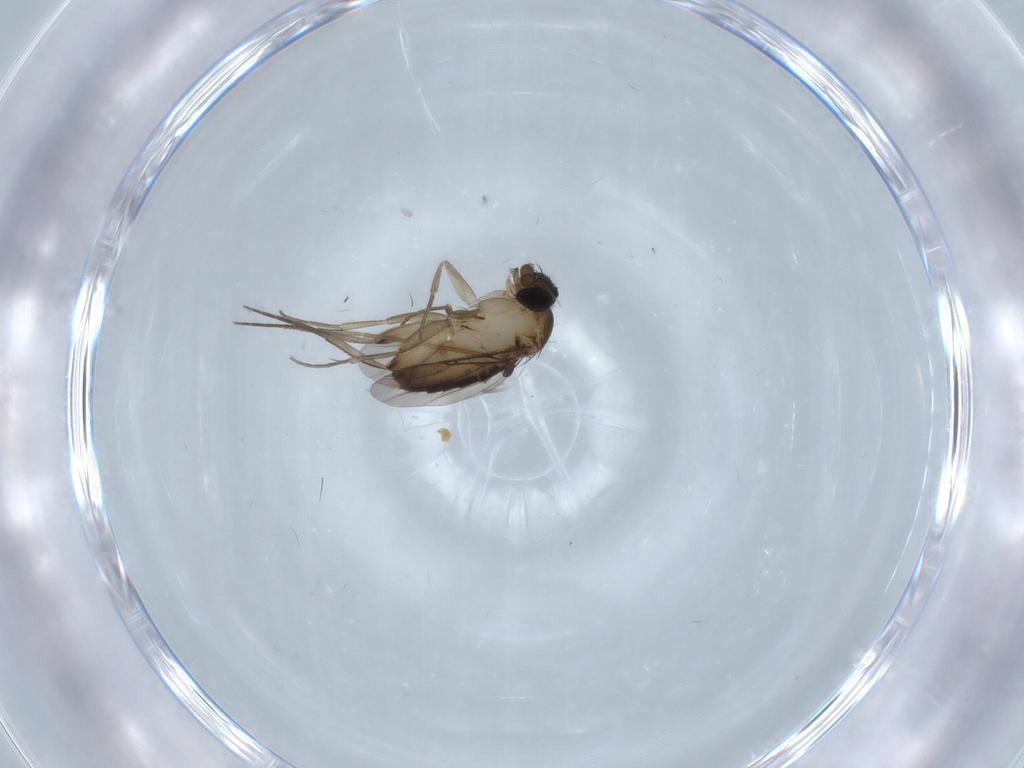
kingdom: Animalia
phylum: Arthropoda
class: Insecta
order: Diptera
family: Phoridae
